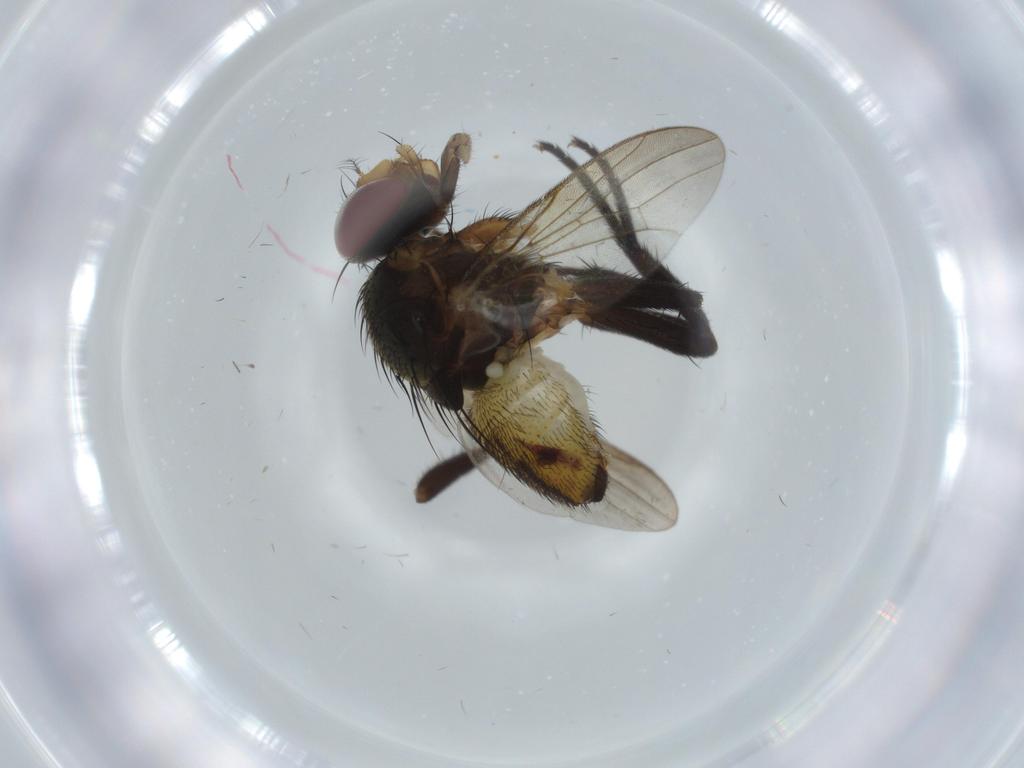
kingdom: Animalia
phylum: Arthropoda
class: Insecta
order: Diptera
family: Anthomyiidae
